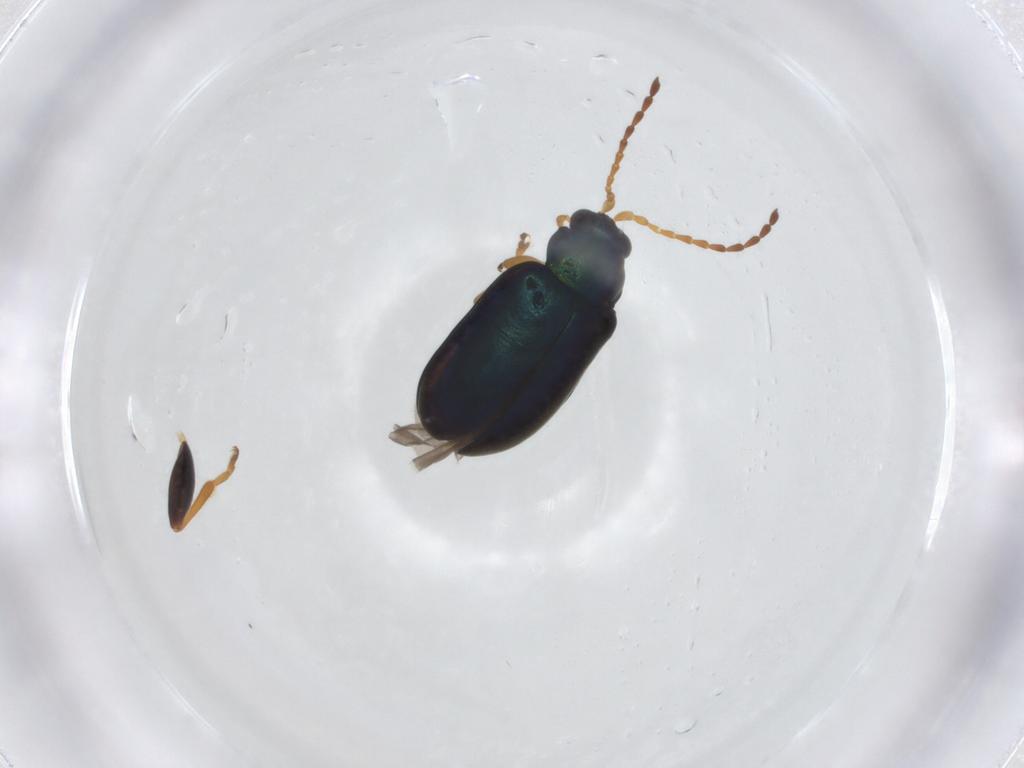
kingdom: Animalia
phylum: Arthropoda
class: Insecta
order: Coleoptera
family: Chrysomelidae
